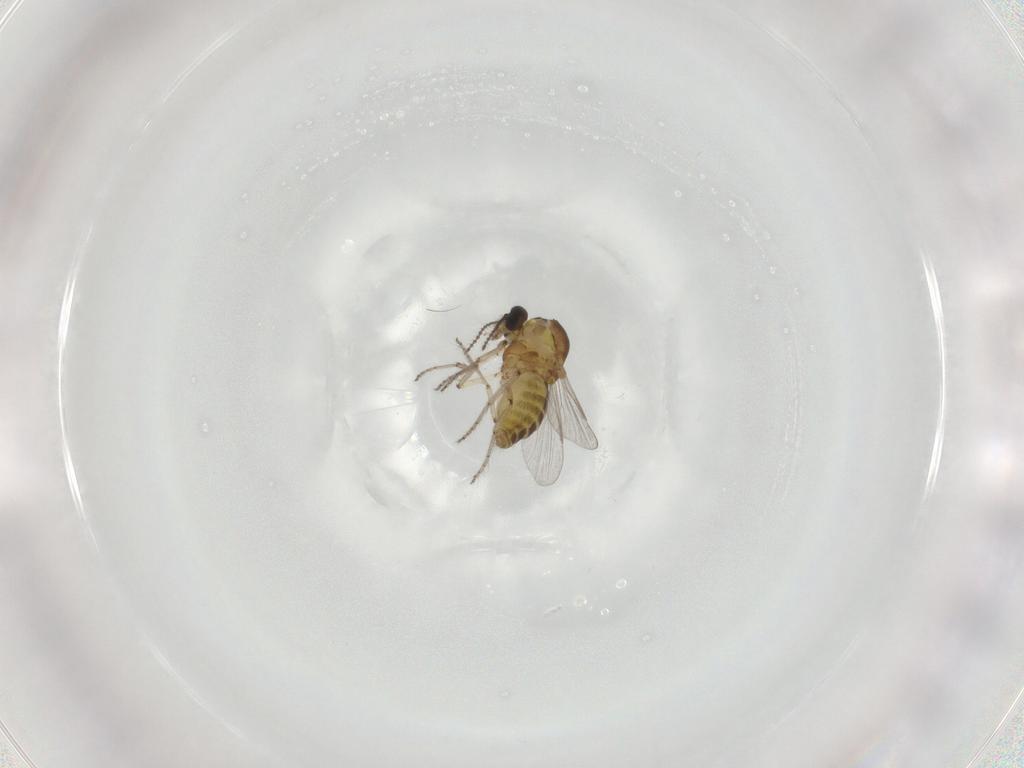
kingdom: Animalia
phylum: Arthropoda
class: Insecta
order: Diptera
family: Ceratopogonidae
